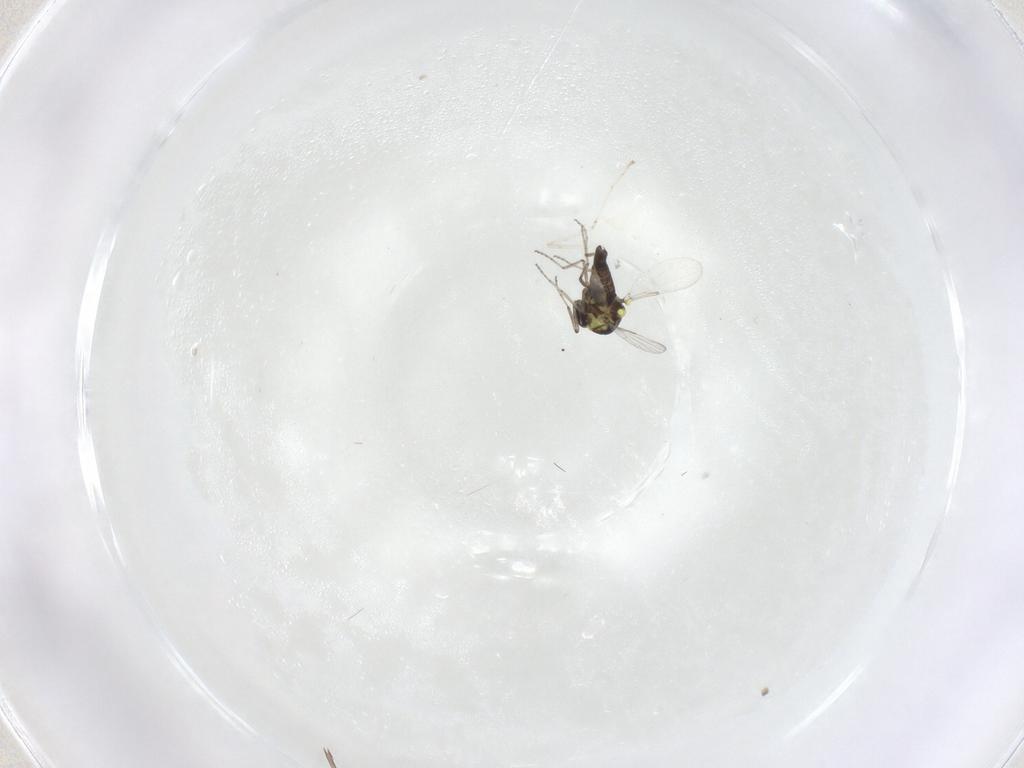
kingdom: Animalia
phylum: Arthropoda
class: Insecta
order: Diptera
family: Cecidomyiidae
